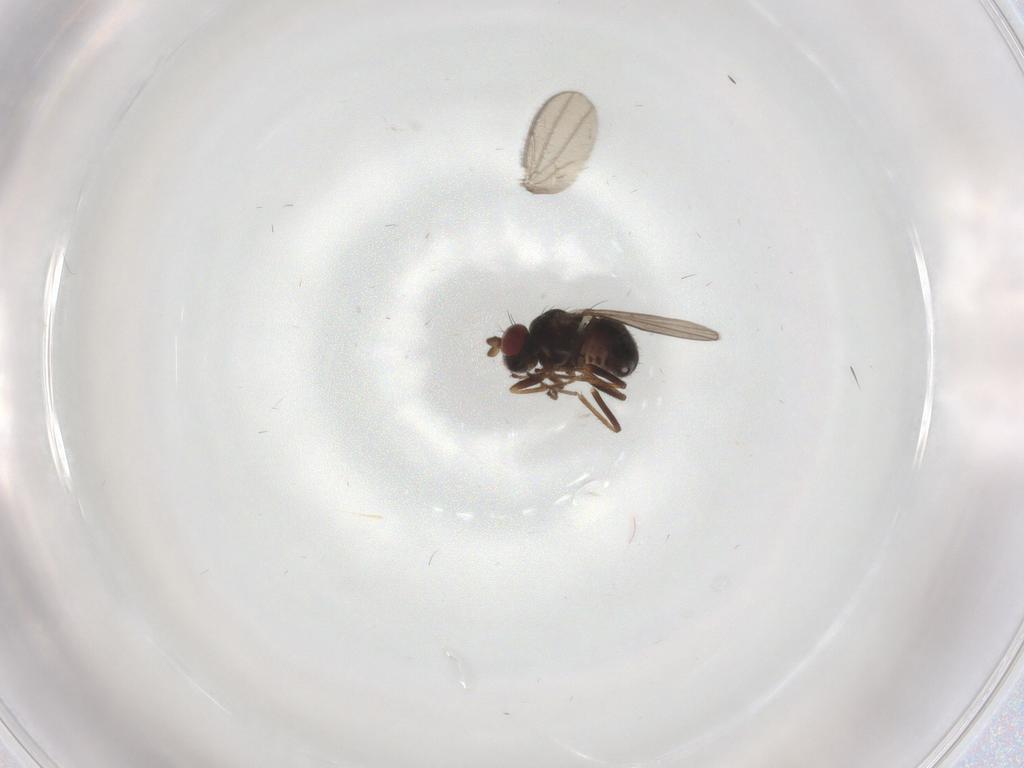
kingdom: Animalia
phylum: Arthropoda
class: Insecta
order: Diptera
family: Ephydridae
